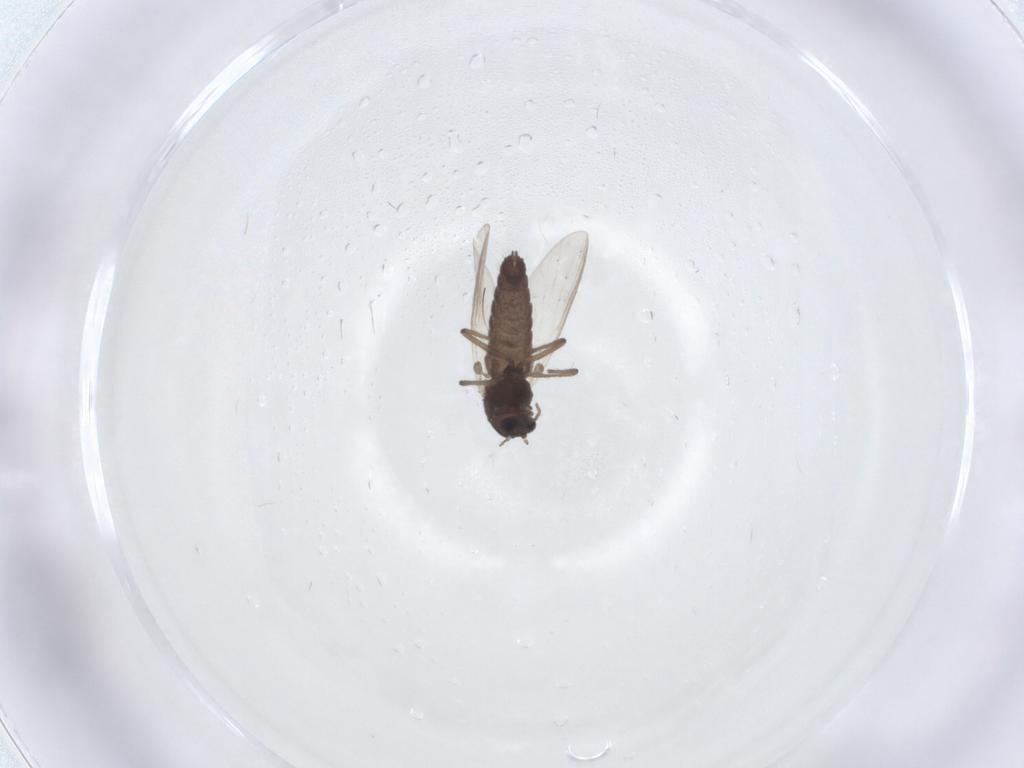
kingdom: Animalia
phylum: Arthropoda
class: Insecta
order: Diptera
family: Chironomidae
